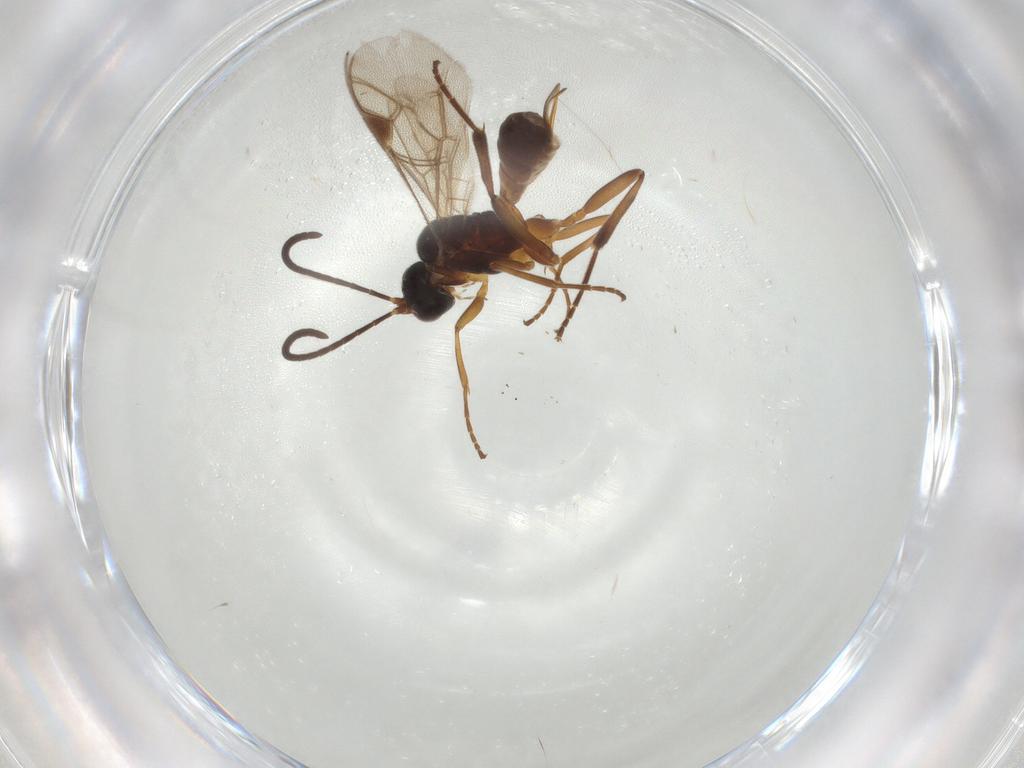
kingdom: Animalia
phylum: Arthropoda
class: Insecta
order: Hymenoptera
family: Ichneumonidae
